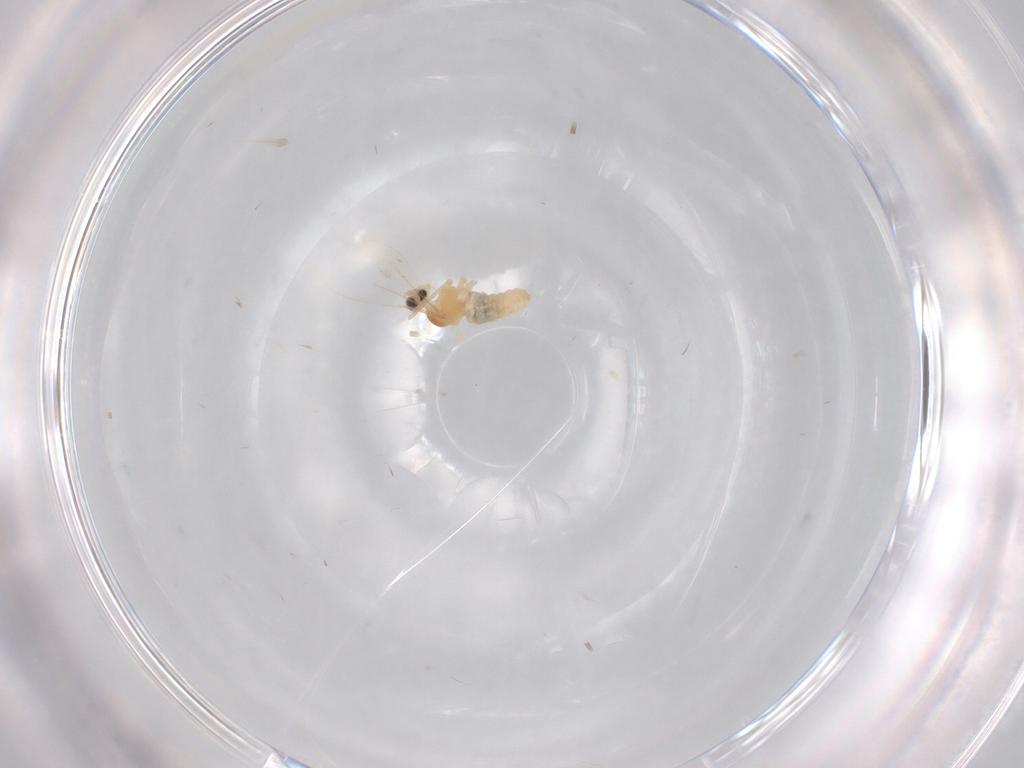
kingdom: Animalia
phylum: Arthropoda
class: Insecta
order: Diptera
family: Cecidomyiidae
